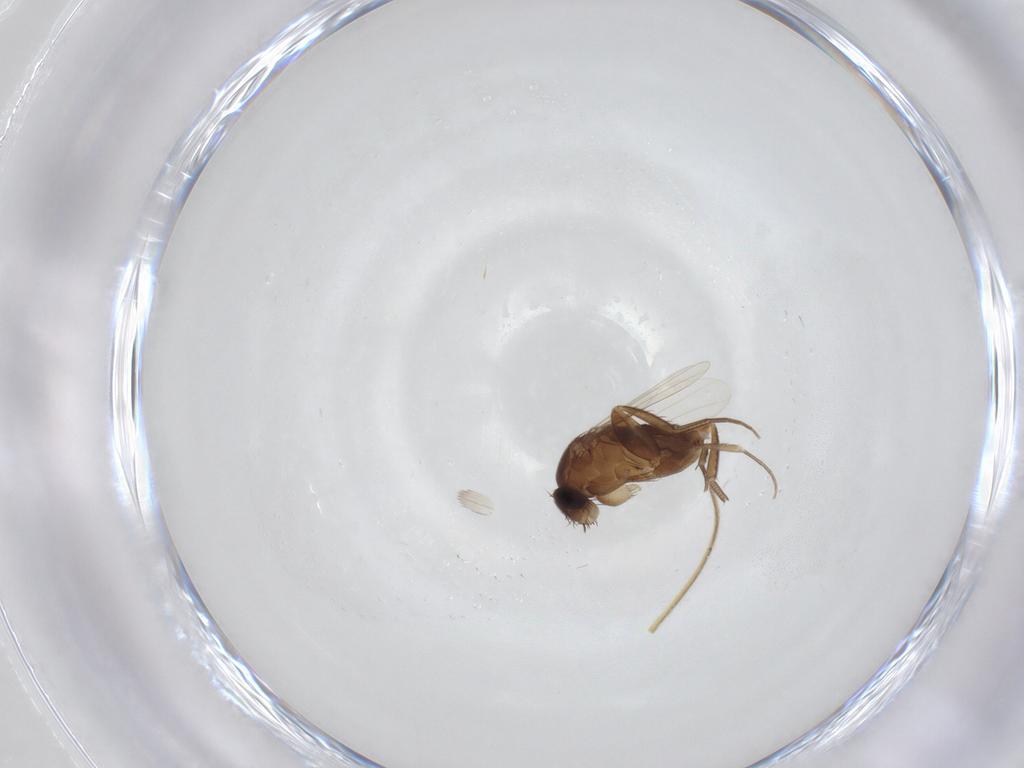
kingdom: Animalia
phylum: Arthropoda
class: Insecta
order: Diptera
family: Phoridae
